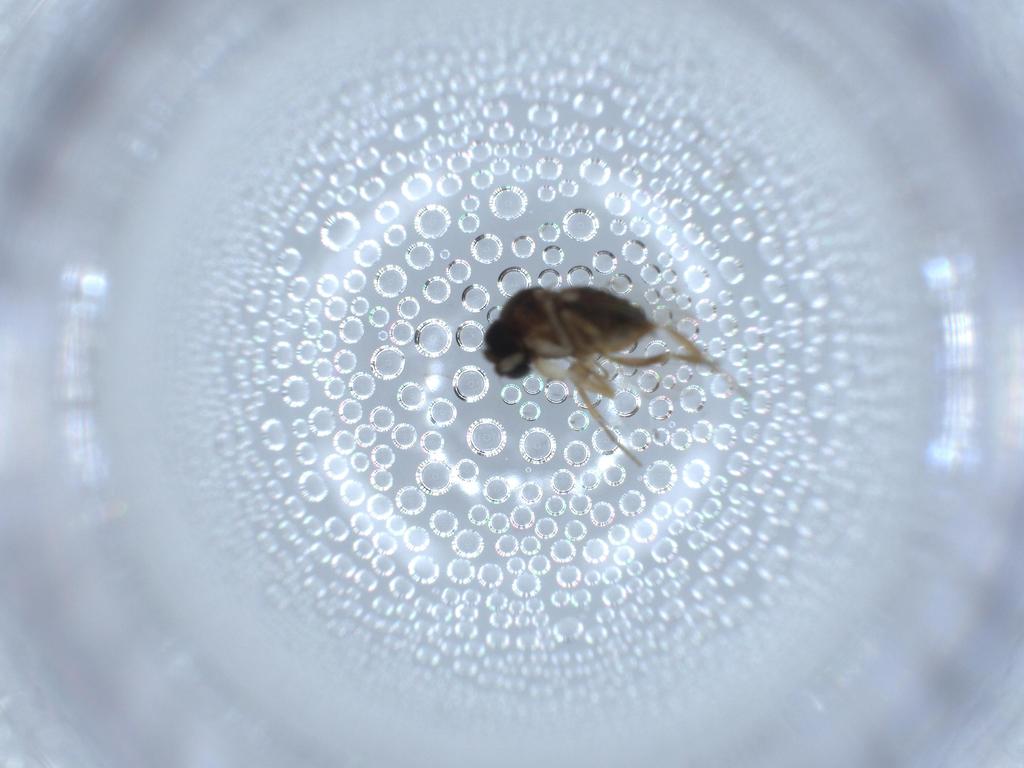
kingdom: Animalia
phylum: Arthropoda
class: Insecta
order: Diptera
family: Phoridae
